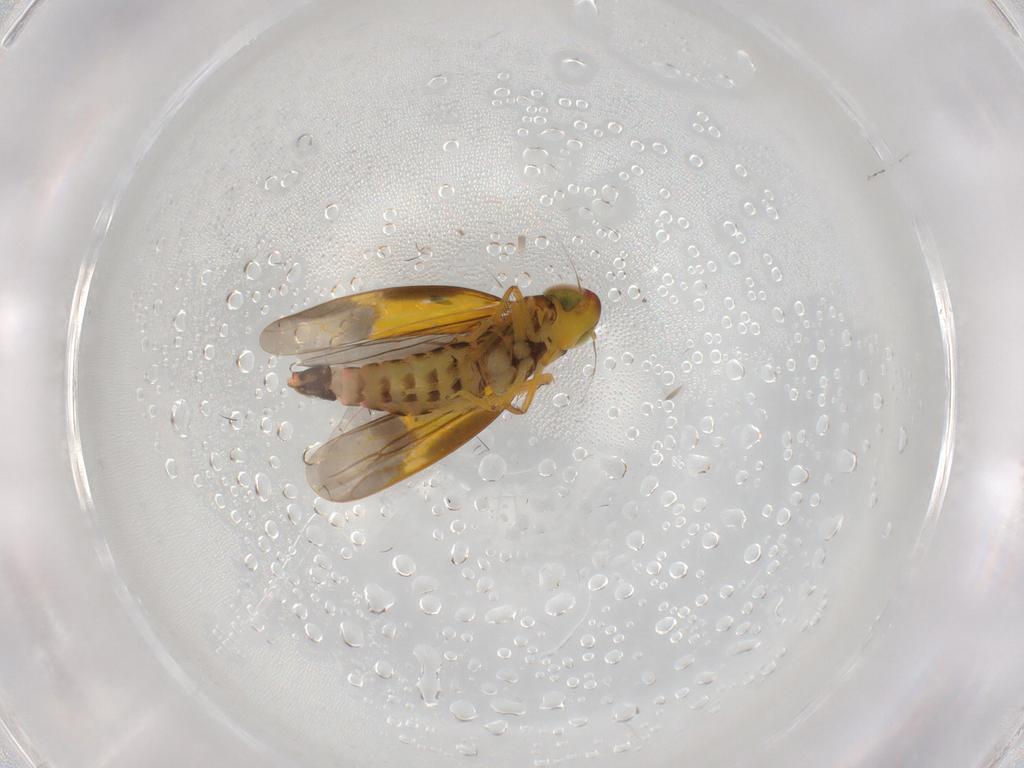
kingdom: Animalia
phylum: Arthropoda
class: Insecta
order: Hemiptera
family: Cicadellidae
